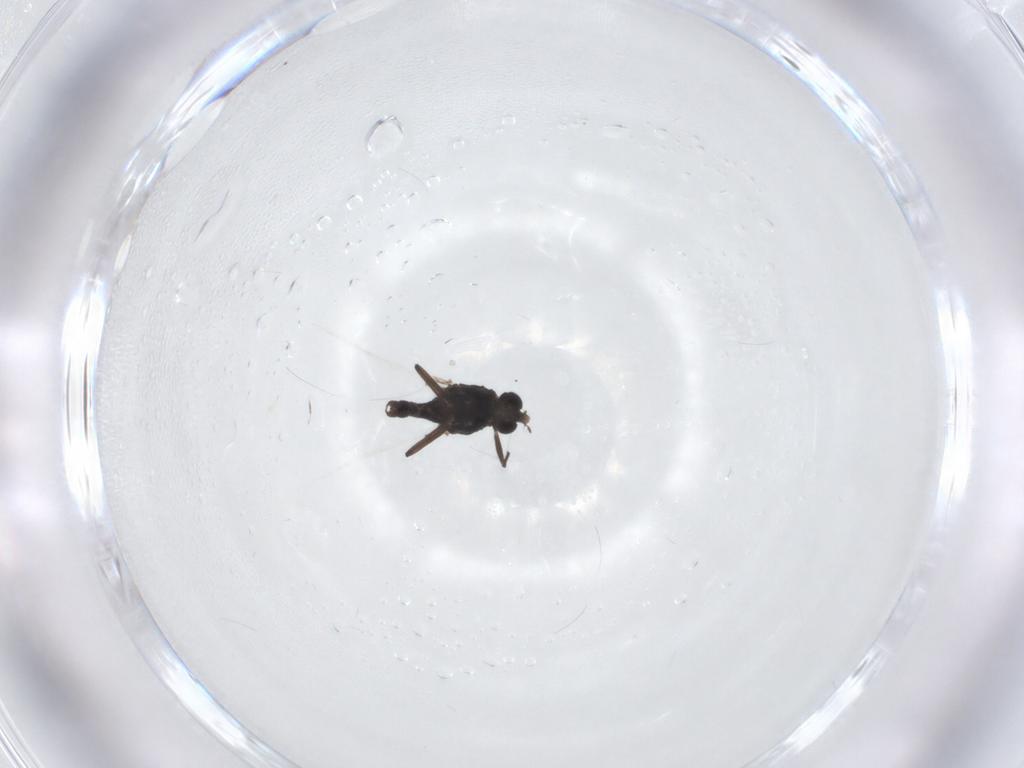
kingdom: Animalia
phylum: Arthropoda
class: Insecta
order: Diptera
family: Chironomidae
